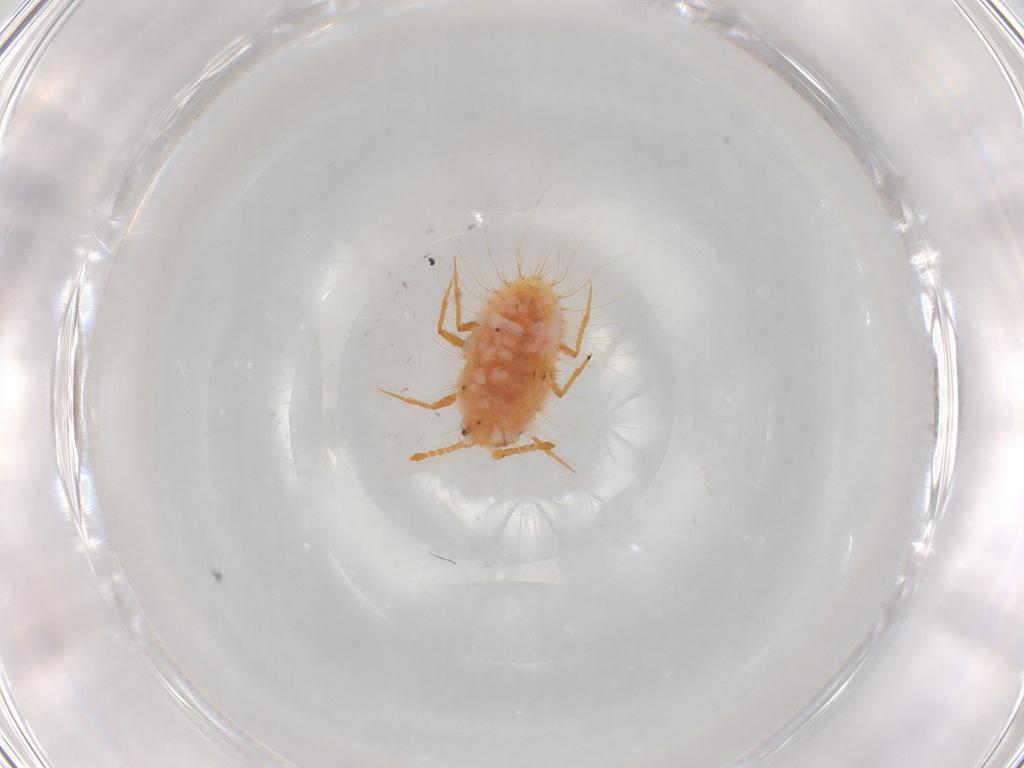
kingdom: Animalia
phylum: Arthropoda
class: Insecta
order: Hemiptera
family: Coccoidea_incertae_sedis
